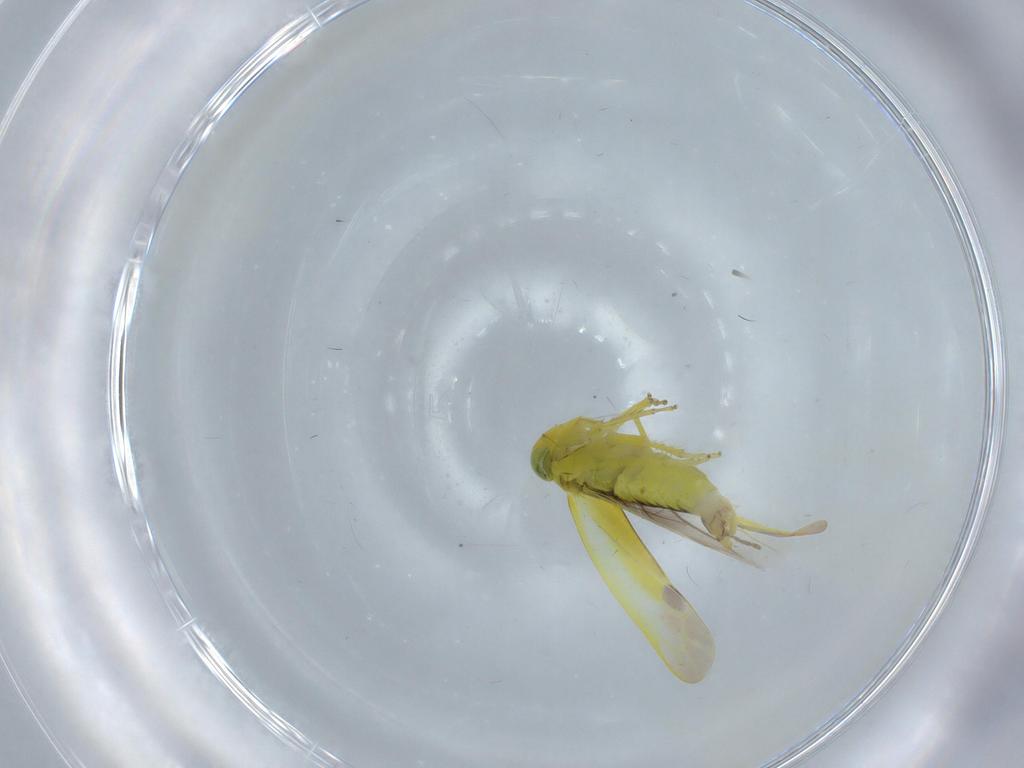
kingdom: Animalia
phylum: Arthropoda
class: Insecta
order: Hemiptera
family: Cicadellidae
